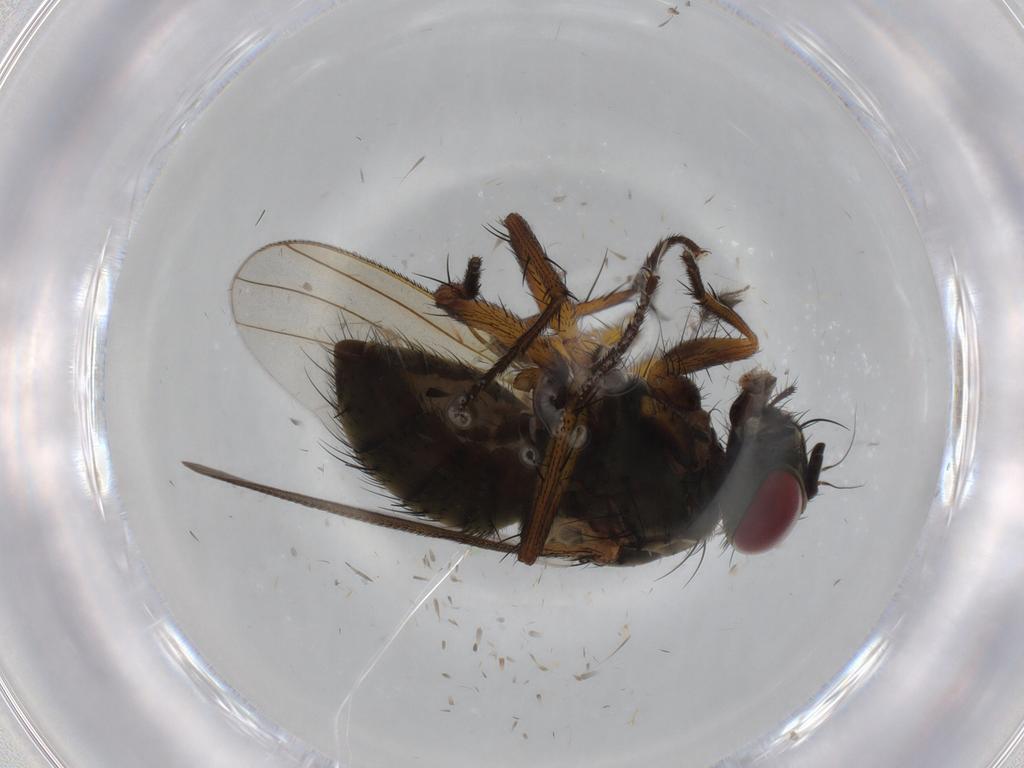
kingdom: Animalia
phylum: Arthropoda
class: Insecta
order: Diptera
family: Muscidae
